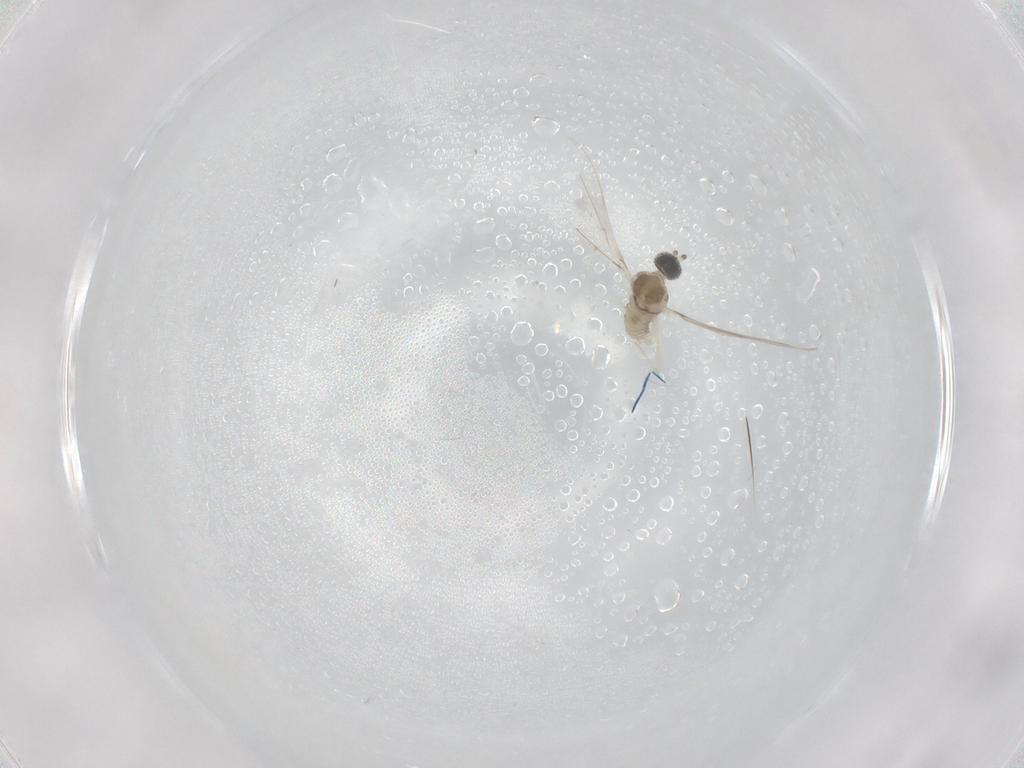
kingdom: Animalia
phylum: Arthropoda
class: Insecta
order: Diptera
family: Cecidomyiidae
